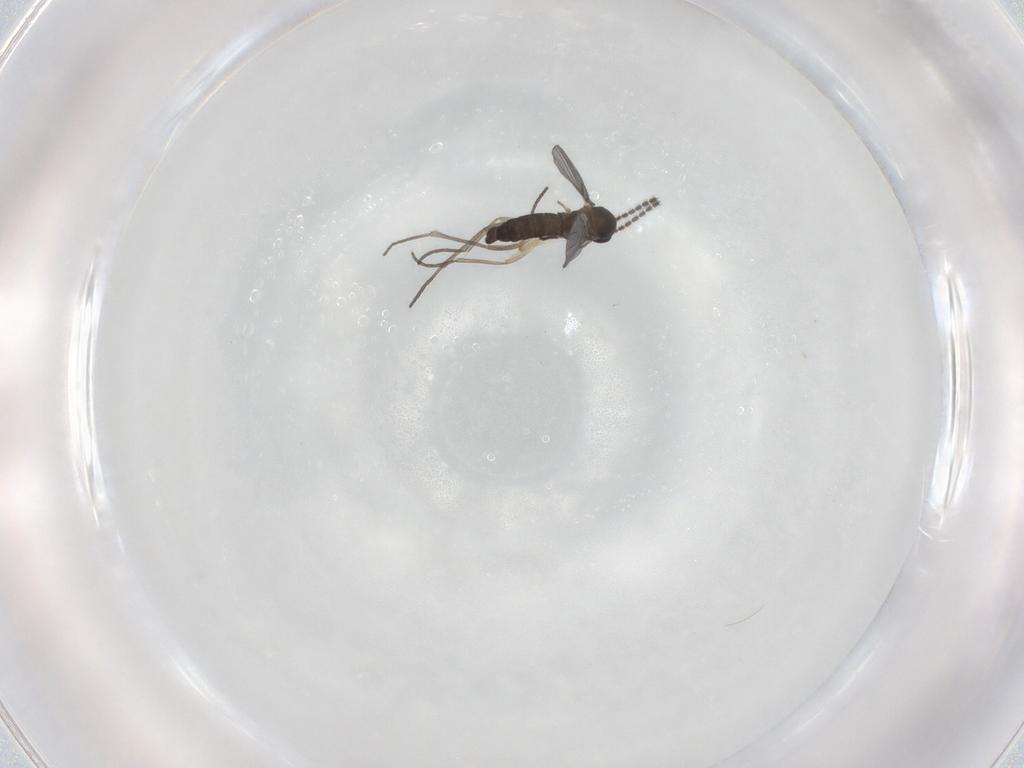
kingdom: Animalia
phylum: Arthropoda
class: Insecta
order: Diptera
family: Sciaridae
